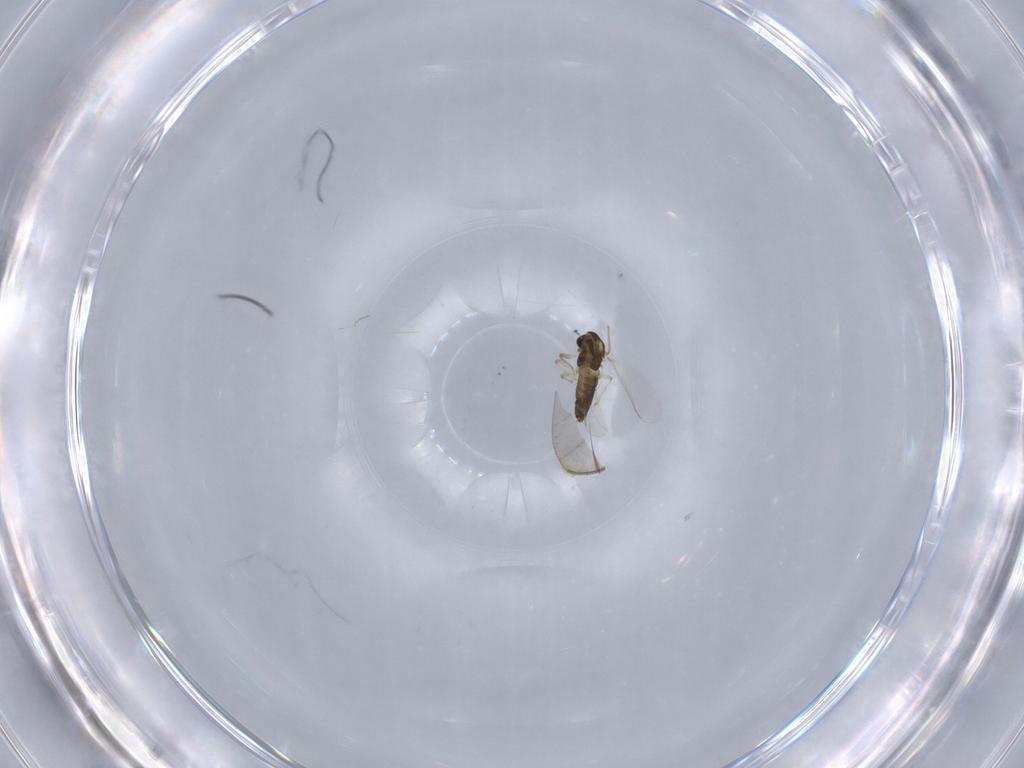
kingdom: Animalia
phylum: Arthropoda
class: Insecta
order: Diptera
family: Chironomidae
